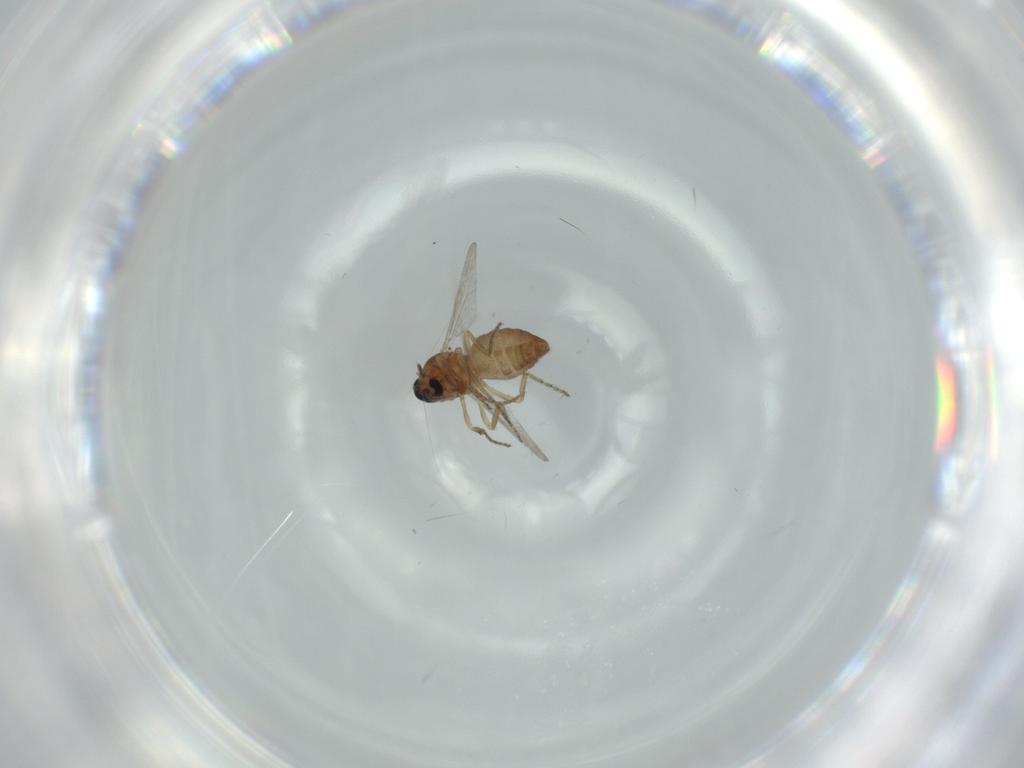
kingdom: Animalia
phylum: Arthropoda
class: Insecta
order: Diptera
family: Ceratopogonidae
